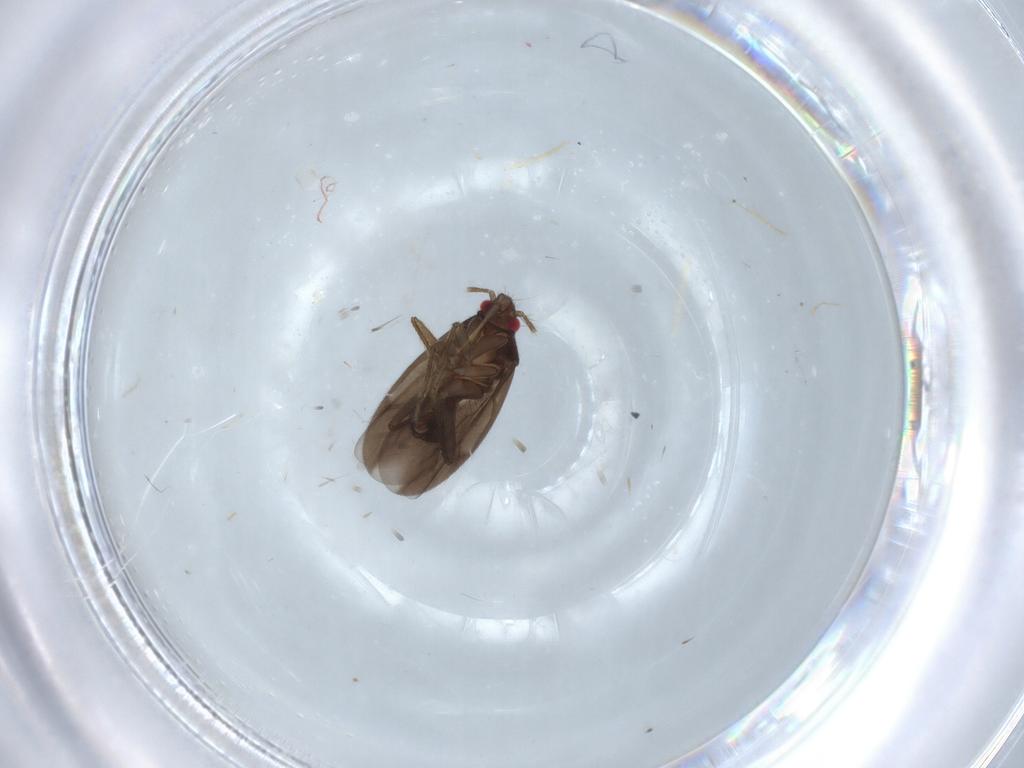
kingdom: Animalia
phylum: Arthropoda
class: Insecta
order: Hemiptera
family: Ceratocombidae
